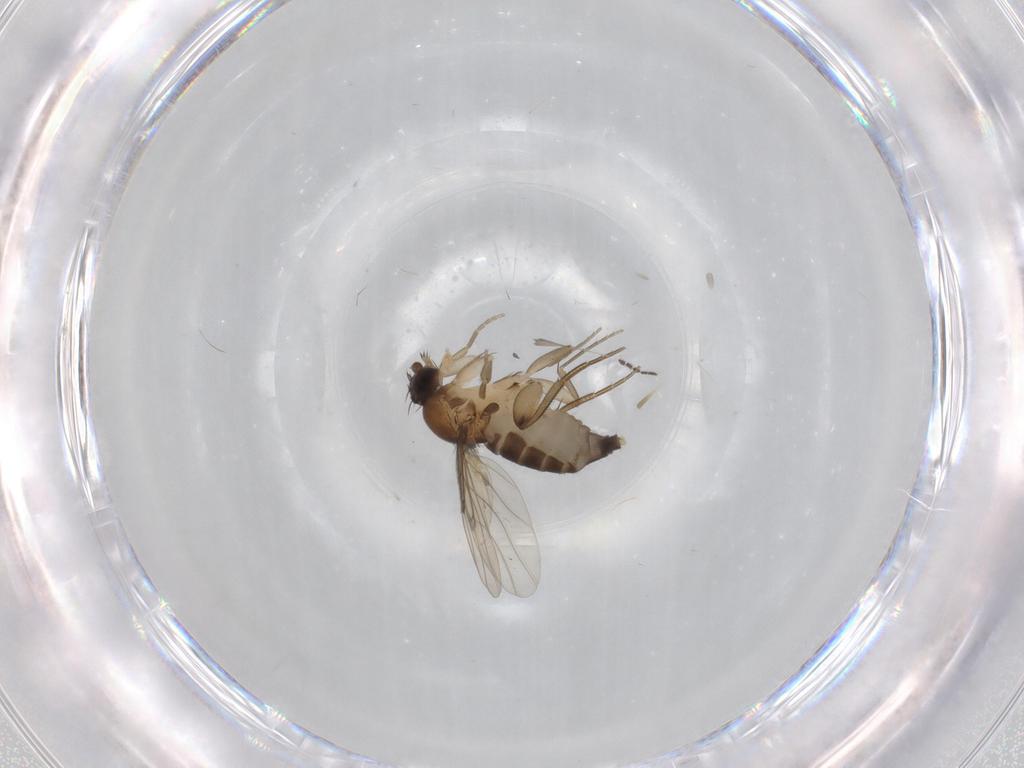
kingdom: Animalia
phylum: Arthropoda
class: Insecta
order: Diptera
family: Phoridae
